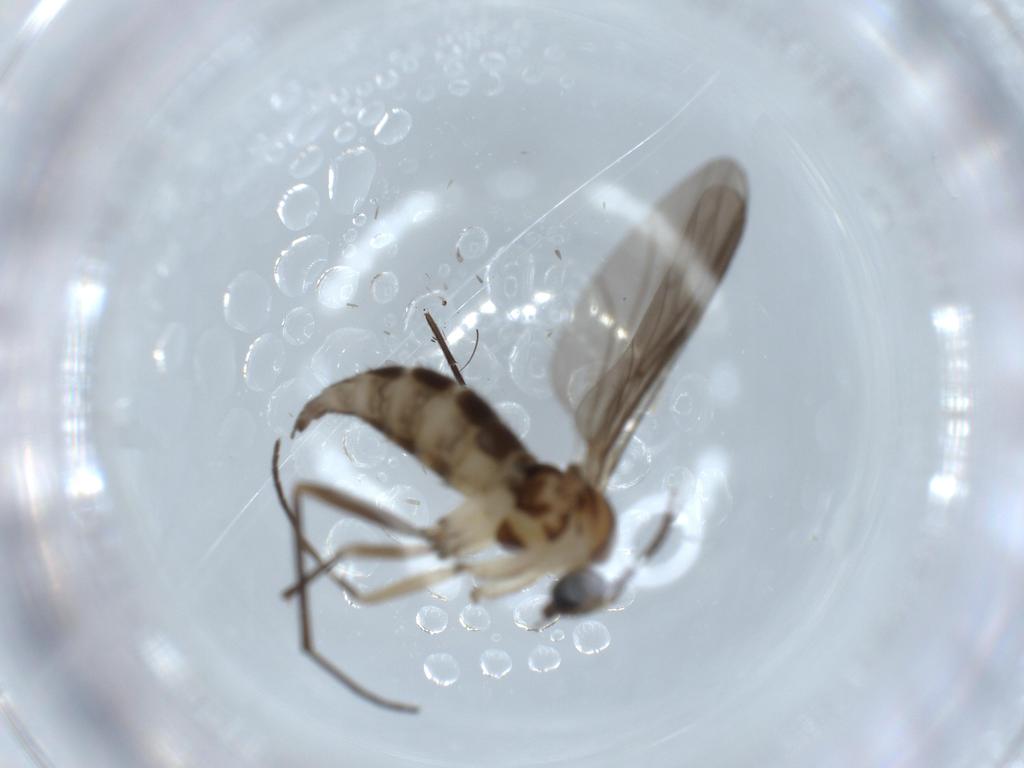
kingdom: Animalia
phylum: Arthropoda
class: Insecta
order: Diptera
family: Sciaridae
